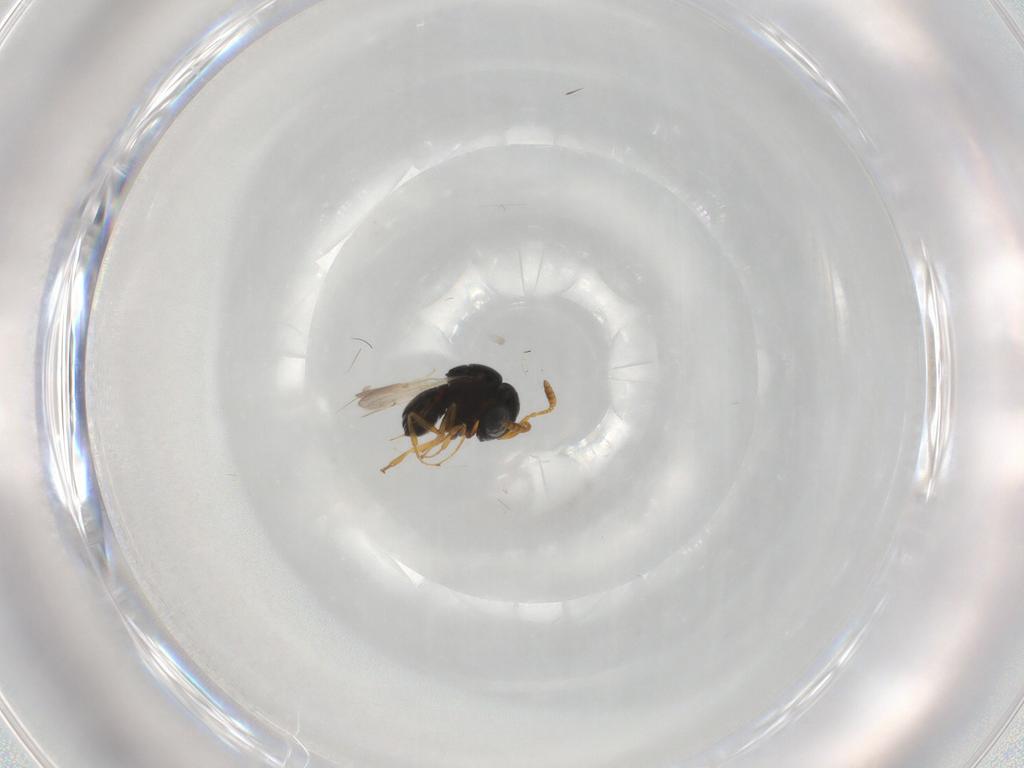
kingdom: Animalia
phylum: Arthropoda
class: Insecta
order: Hymenoptera
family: Scelionidae
